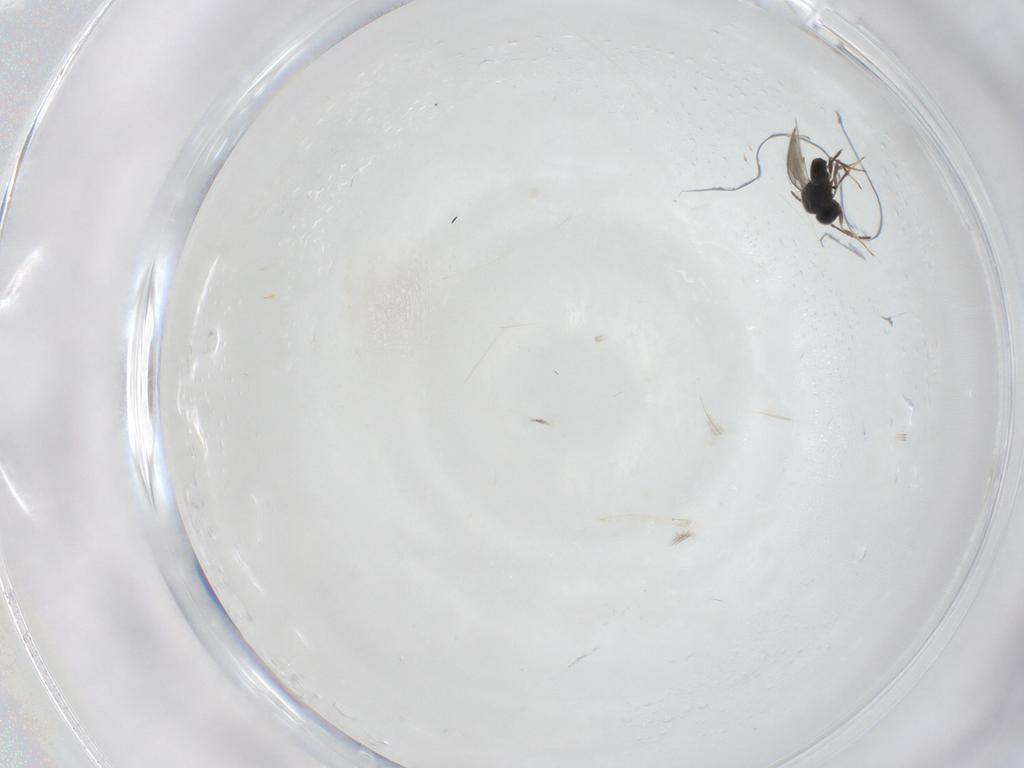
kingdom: Animalia
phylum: Arthropoda
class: Insecta
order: Hymenoptera
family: Scelionidae
